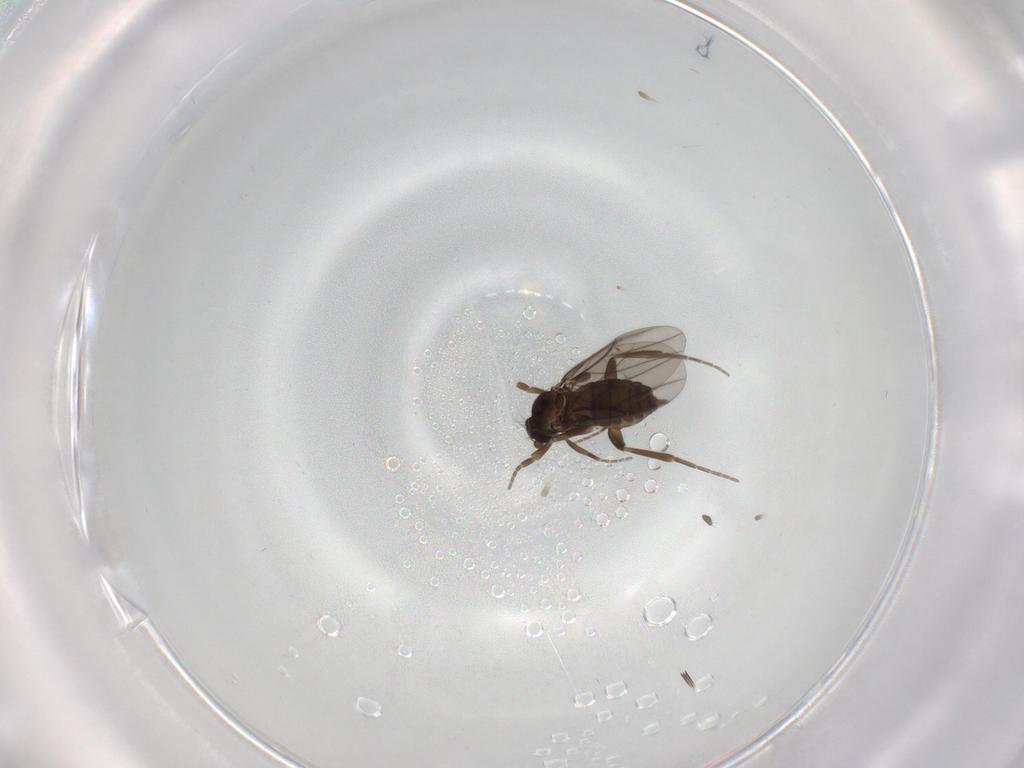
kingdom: Animalia
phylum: Arthropoda
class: Insecta
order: Diptera
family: Phoridae
